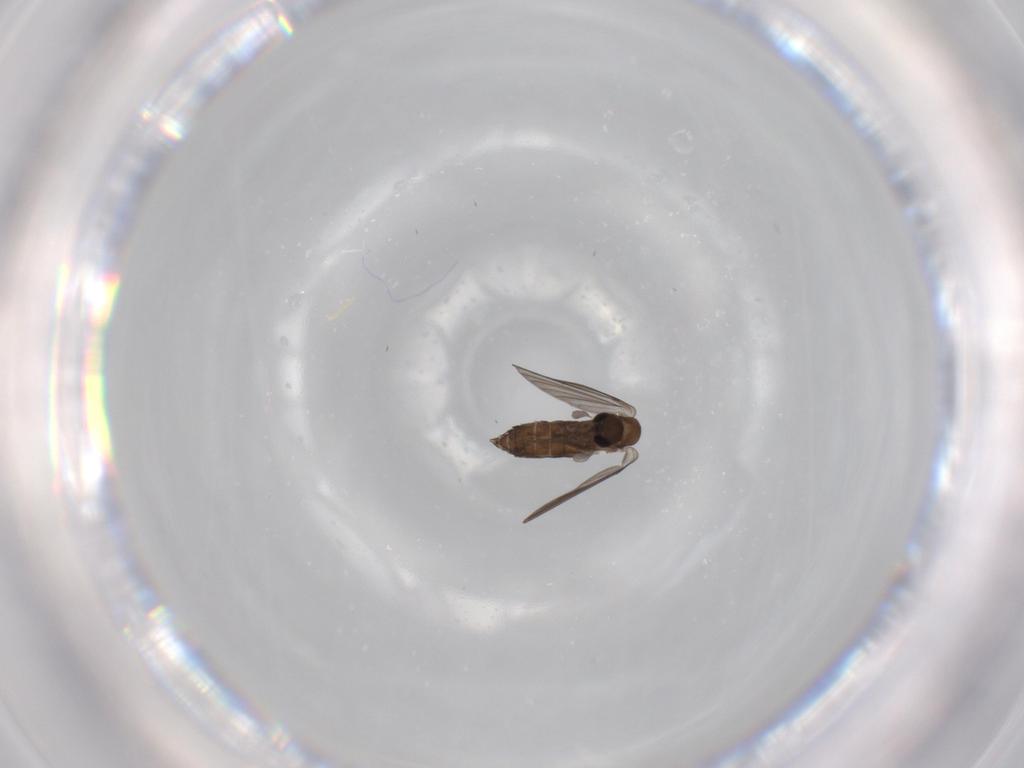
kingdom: Animalia
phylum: Arthropoda
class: Insecta
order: Diptera
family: Psychodidae
